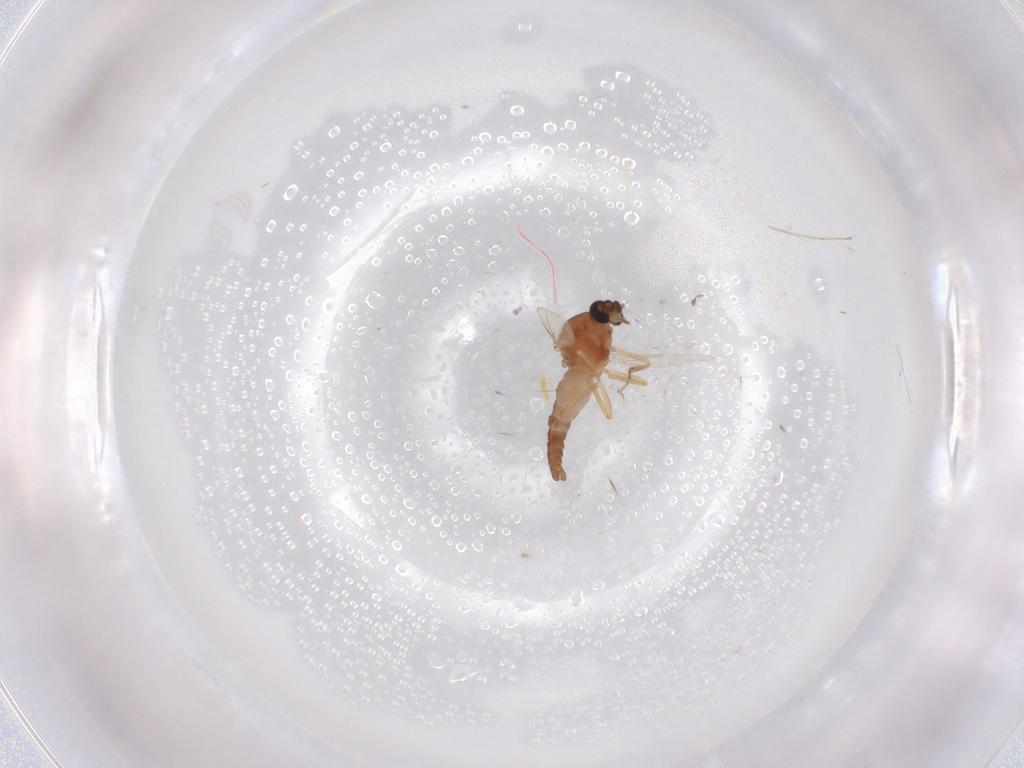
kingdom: Animalia
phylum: Arthropoda
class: Insecta
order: Diptera
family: Ceratopogonidae
